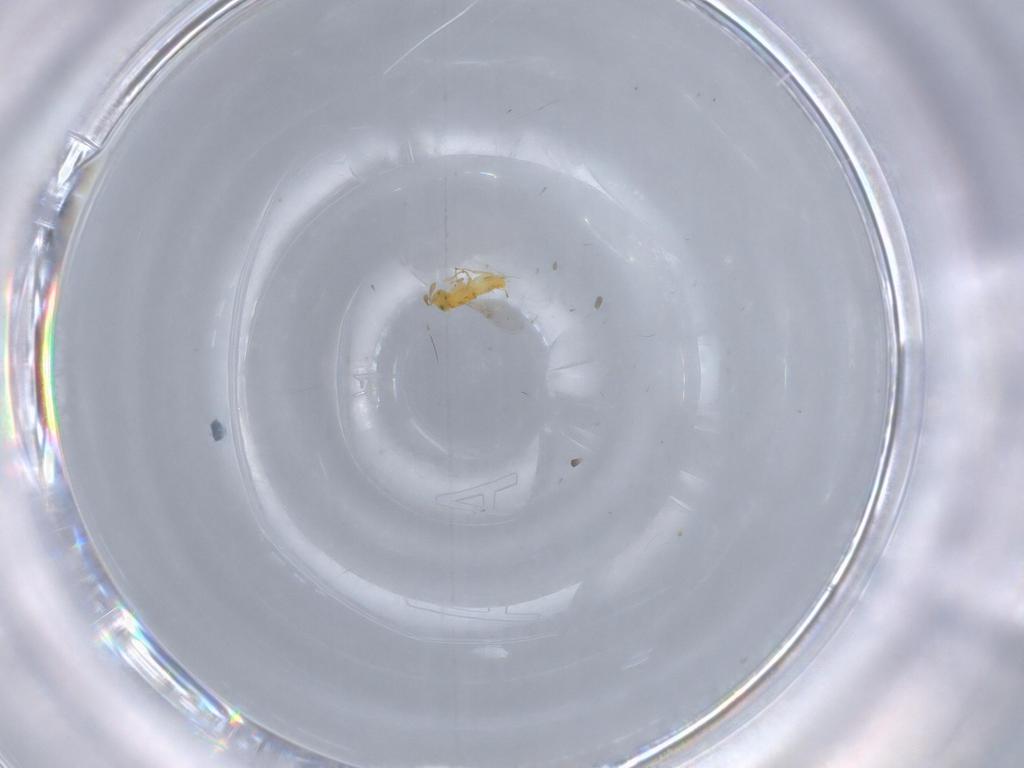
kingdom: Animalia
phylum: Arthropoda
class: Insecta
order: Hymenoptera
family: Encyrtidae
